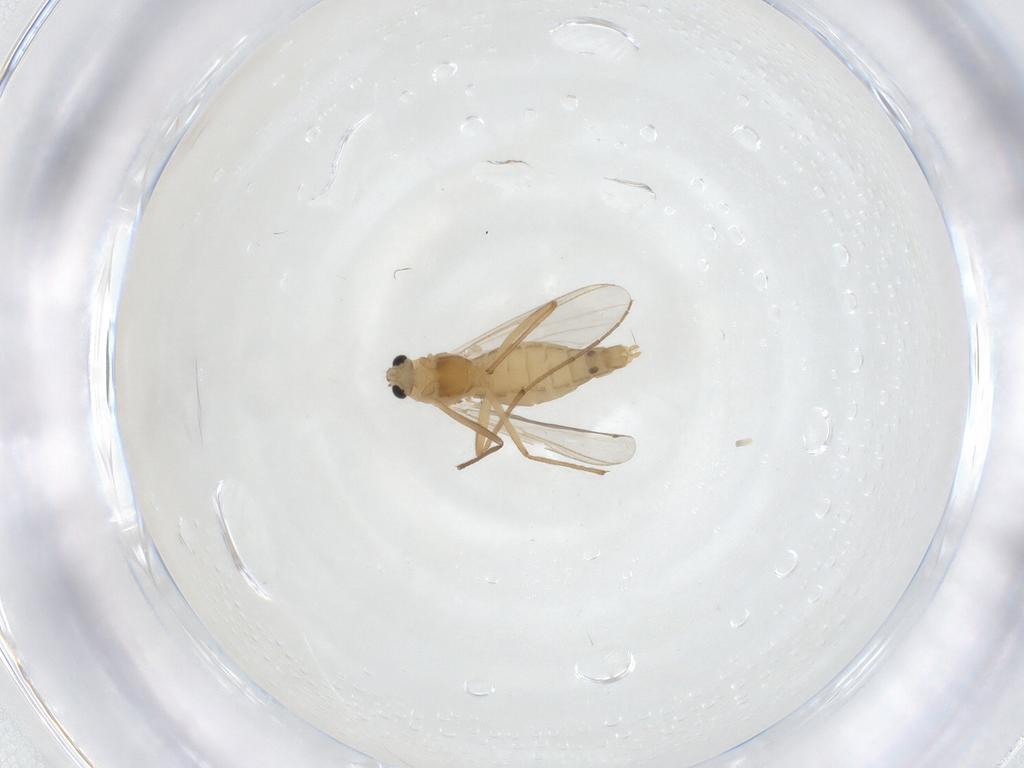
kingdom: Animalia
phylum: Arthropoda
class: Insecta
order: Diptera
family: Chironomidae
